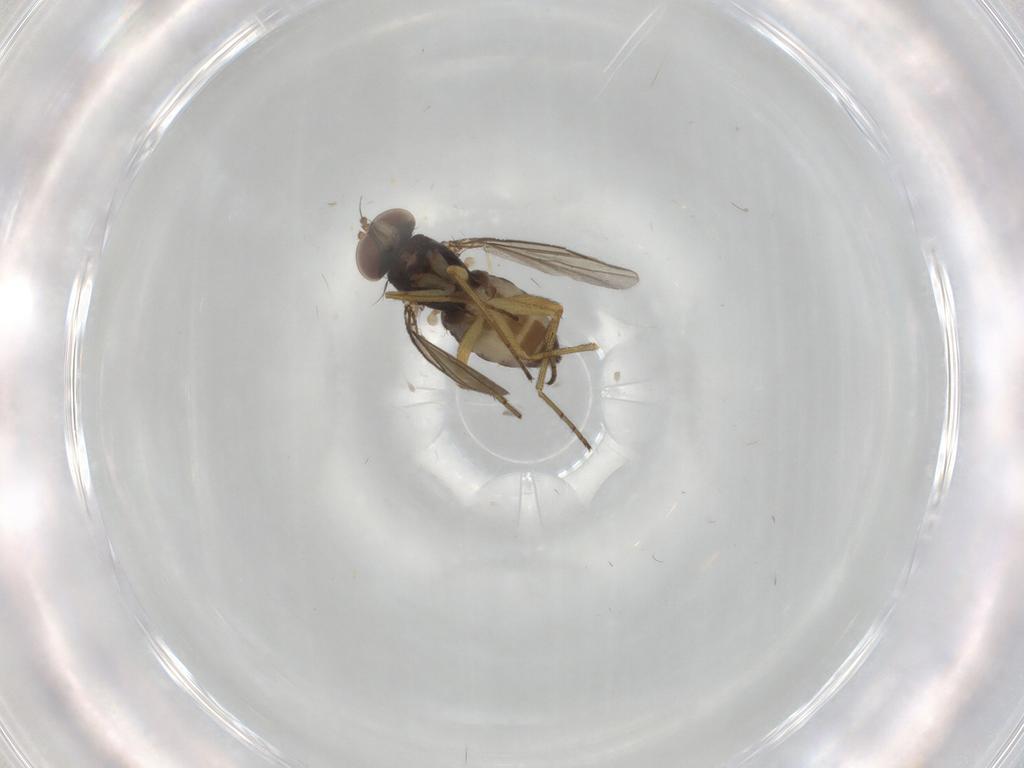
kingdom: Animalia
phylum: Arthropoda
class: Insecta
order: Diptera
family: Dolichopodidae
